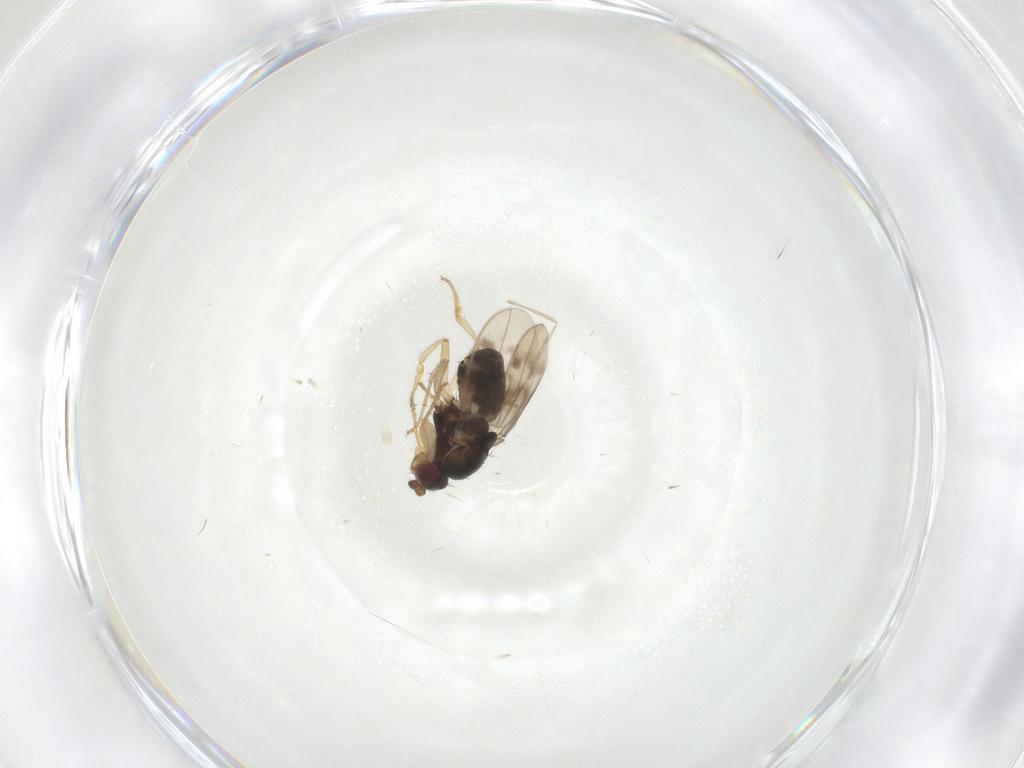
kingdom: Animalia
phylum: Arthropoda
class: Insecta
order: Diptera
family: Sphaeroceridae
